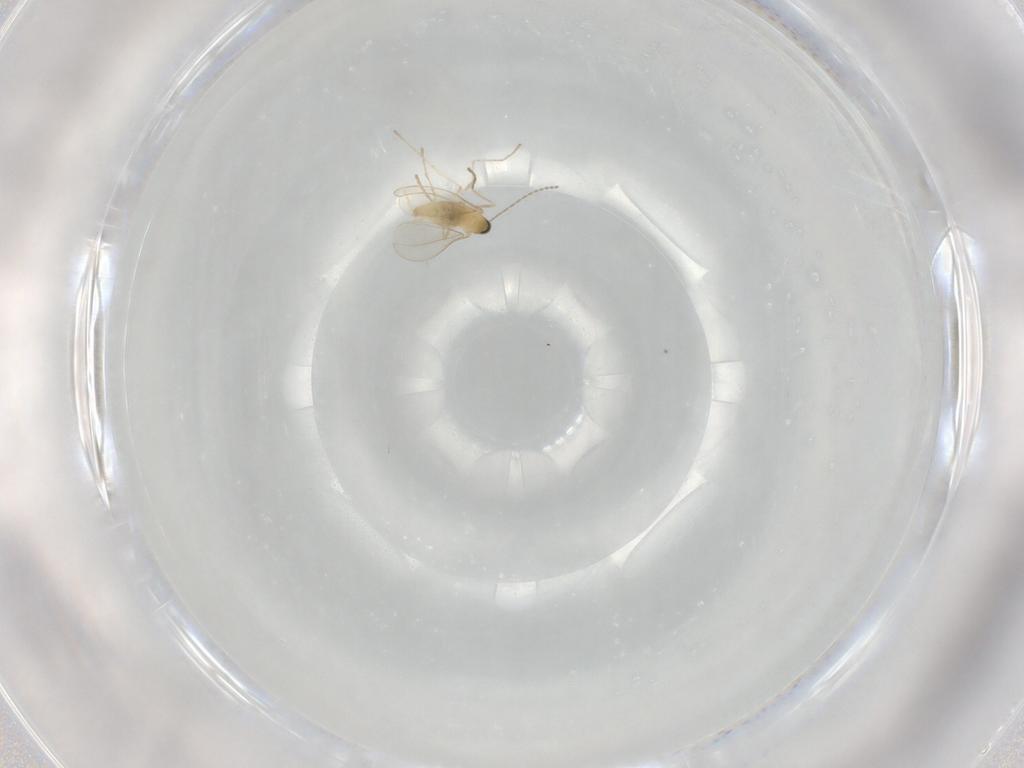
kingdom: Animalia
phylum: Arthropoda
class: Insecta
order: Diptera
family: Cecidomyiidae
